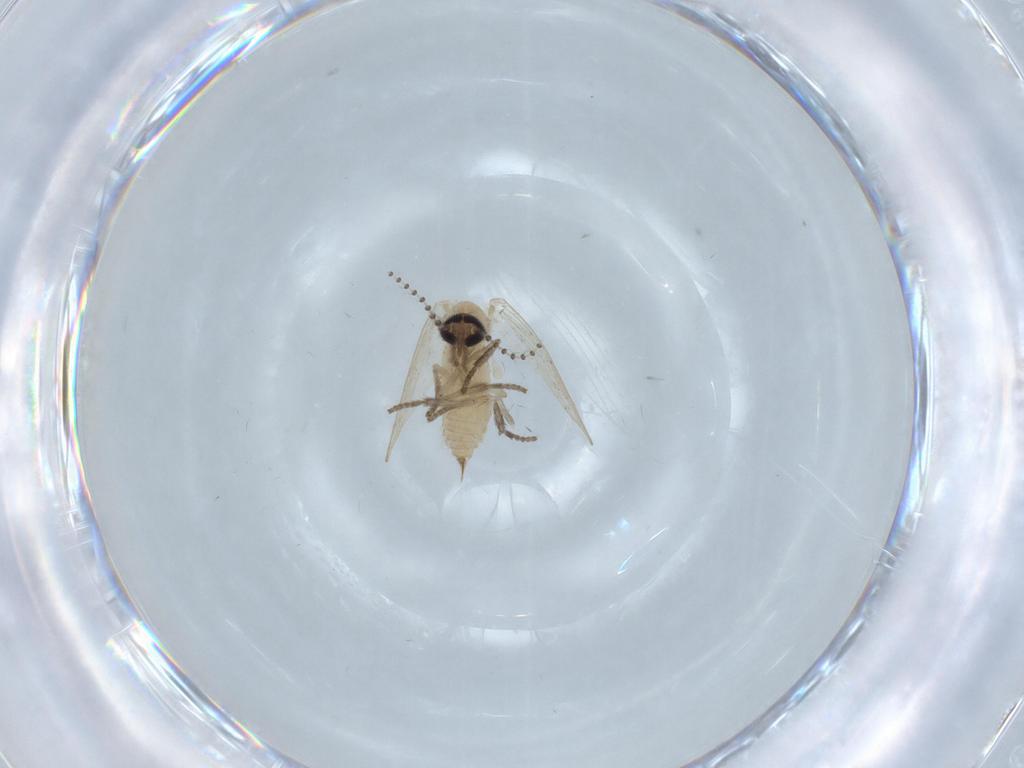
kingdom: Animalia
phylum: Arthropoda
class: Insecta
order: Diptera
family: Psychodidae
